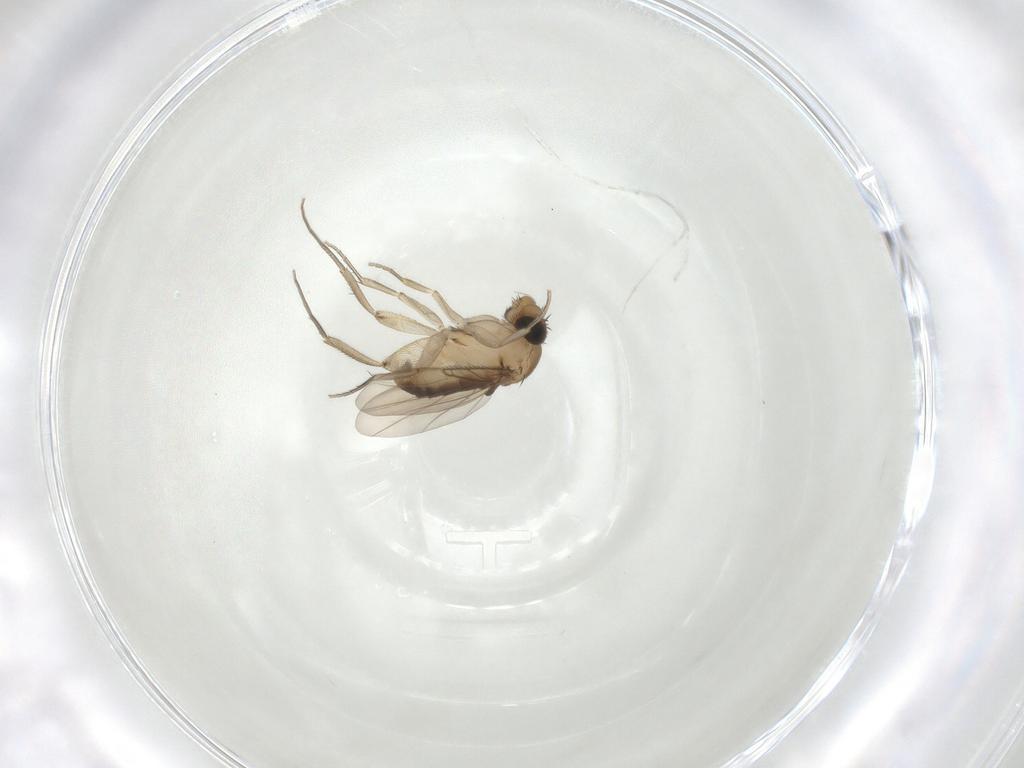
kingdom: Animalia
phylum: Arthropoda
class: Insecta
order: Diptera
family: Phoridae
